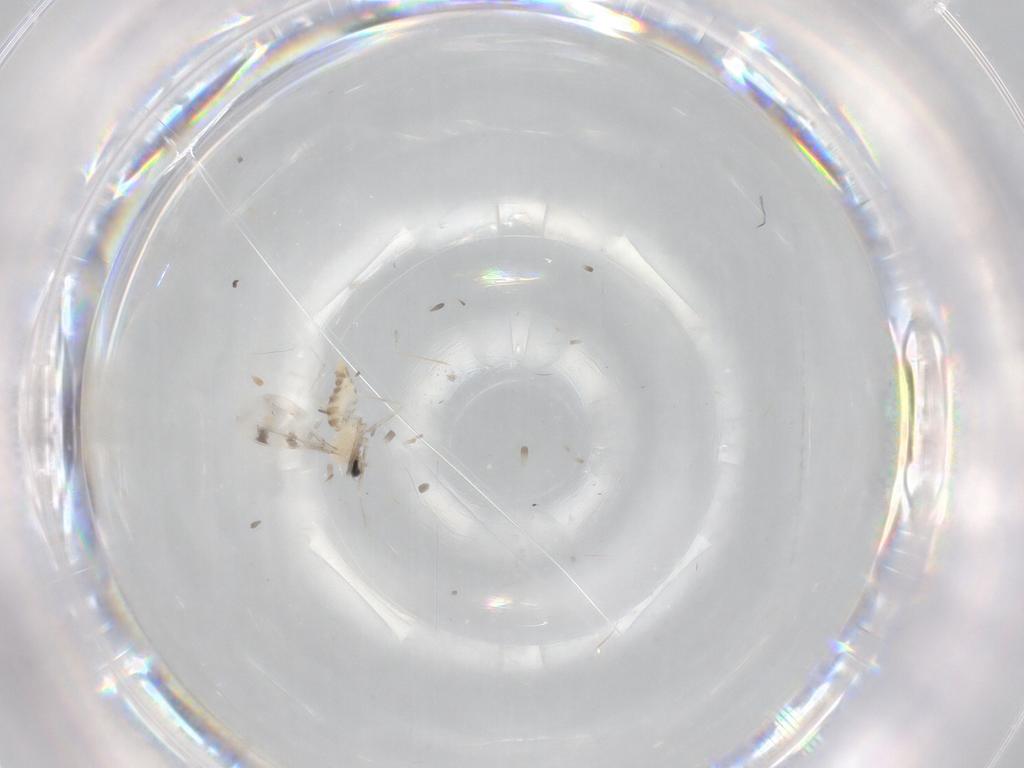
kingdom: Animalia
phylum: Arthropoda
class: Insecta
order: Diptera
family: Cecidomyiidae
